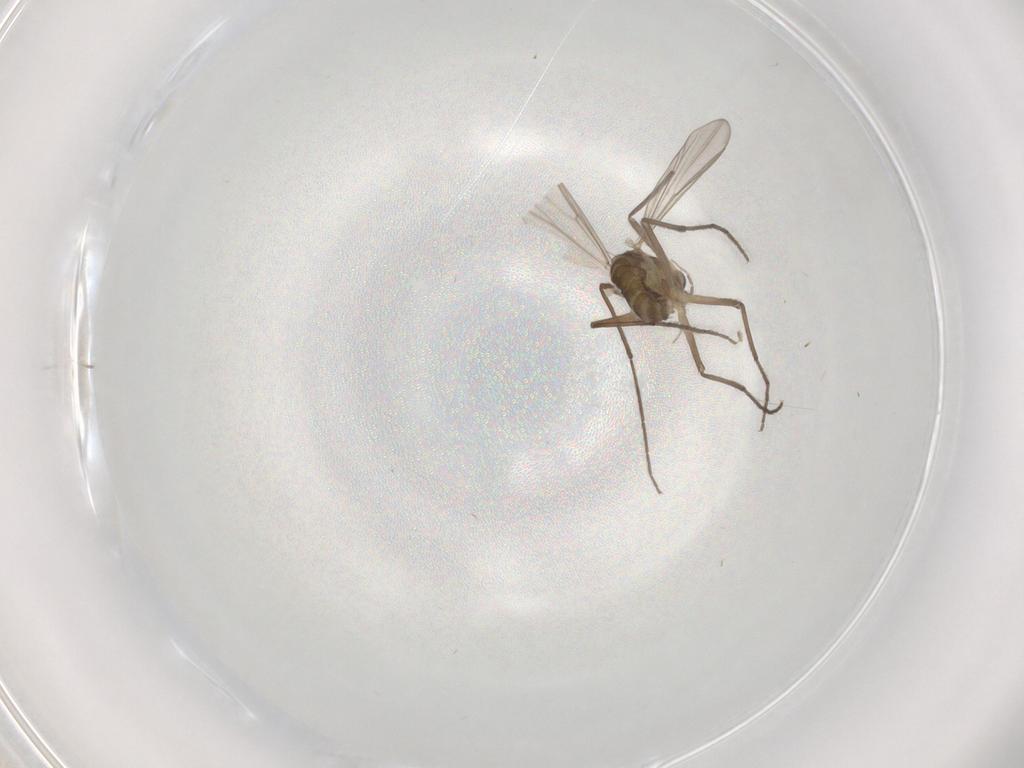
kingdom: Animalia
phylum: Arthropoda
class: Insecta
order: Diptera
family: Chironomidae
